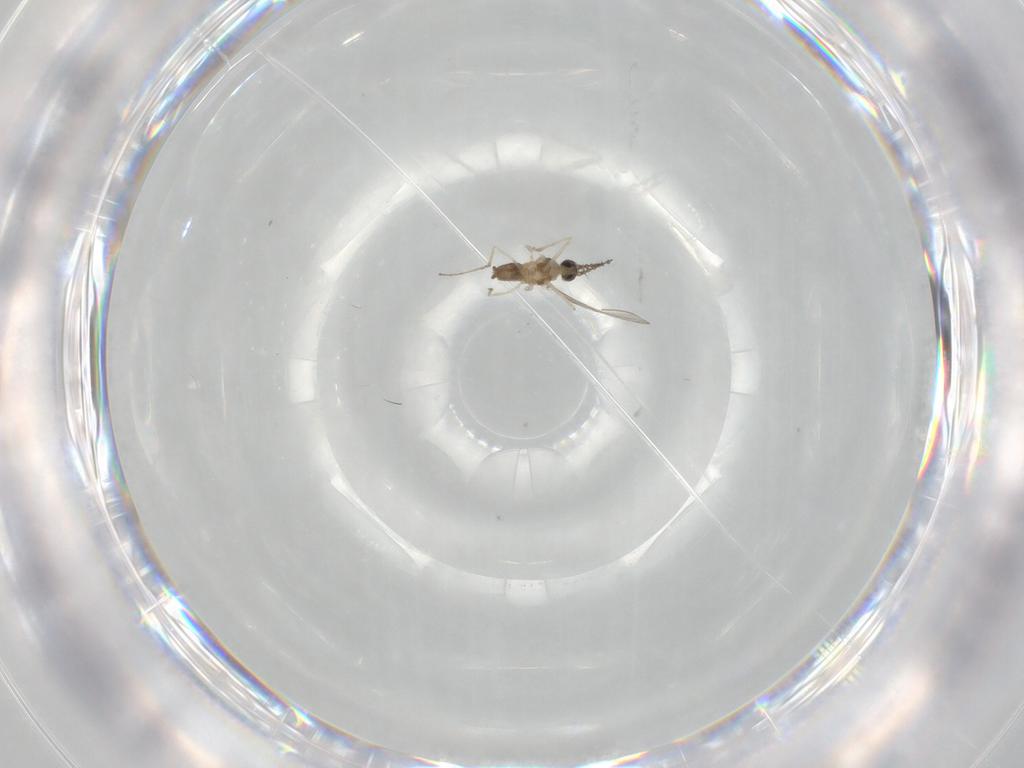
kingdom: Animalia
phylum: Arthropoda
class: Insecta
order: Diptera
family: Cecidomyiidae
